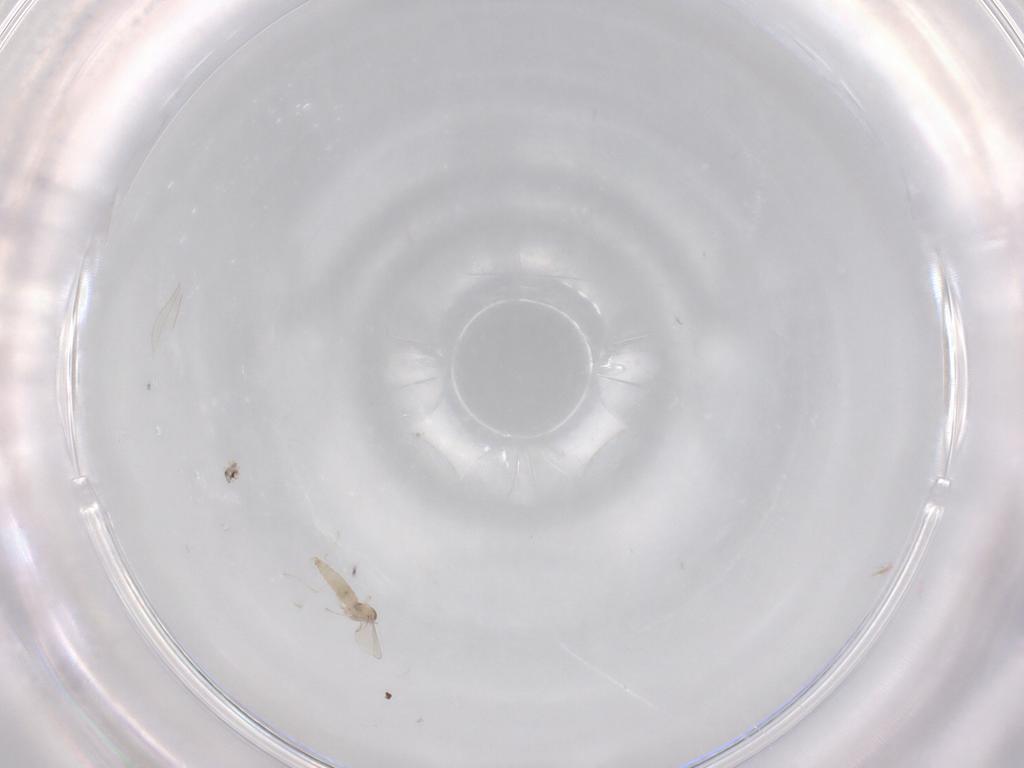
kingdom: Animalia
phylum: Arthropoda
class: Insecta
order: Diptera
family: Cecidomyiidae
